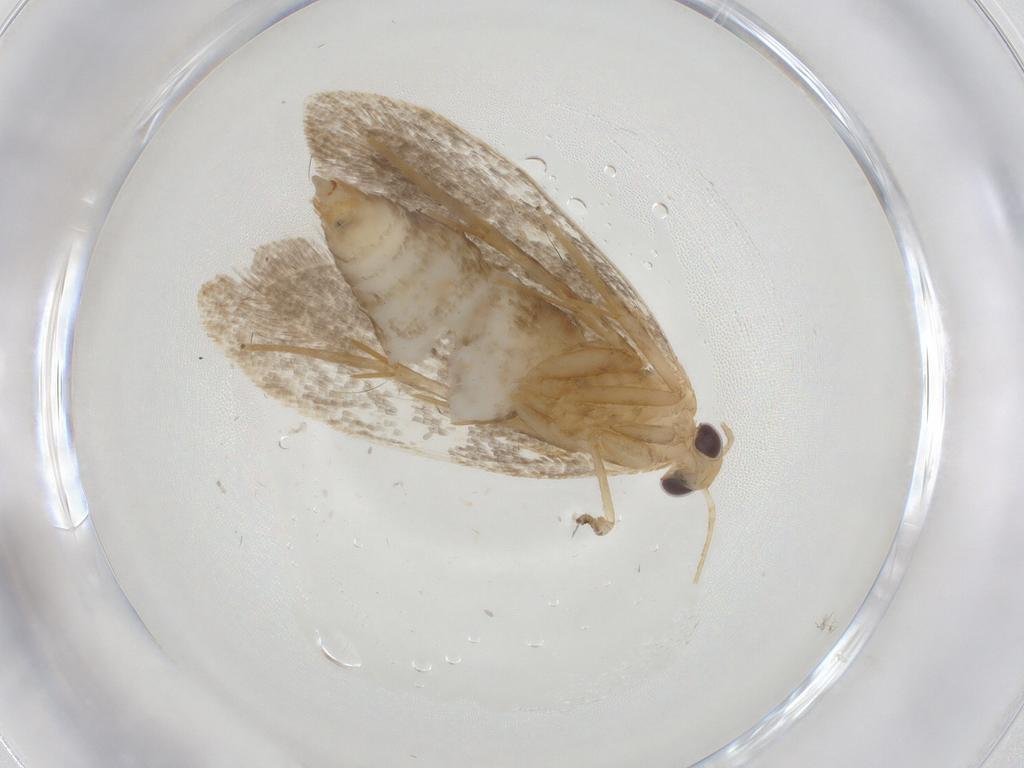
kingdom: Animalia
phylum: Arthropoda
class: Insecta
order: Lepidoptera
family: Oecophoridae
